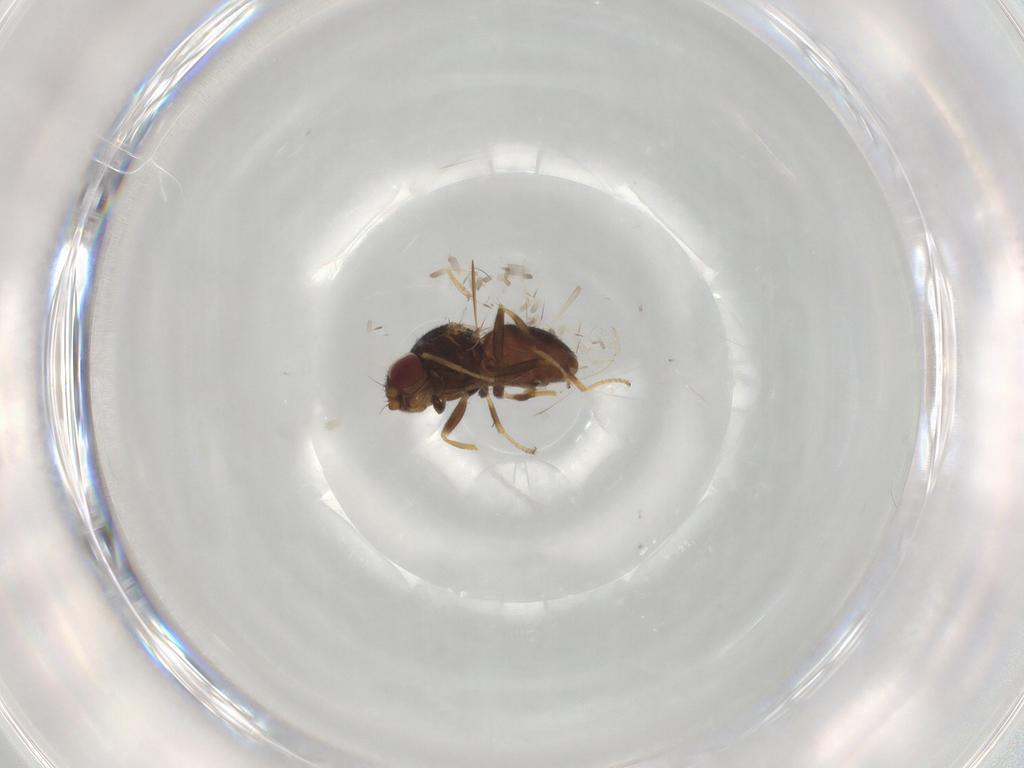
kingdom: Animalia
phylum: Arthropoda
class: Insecta
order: Diptera
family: Chloropidae
